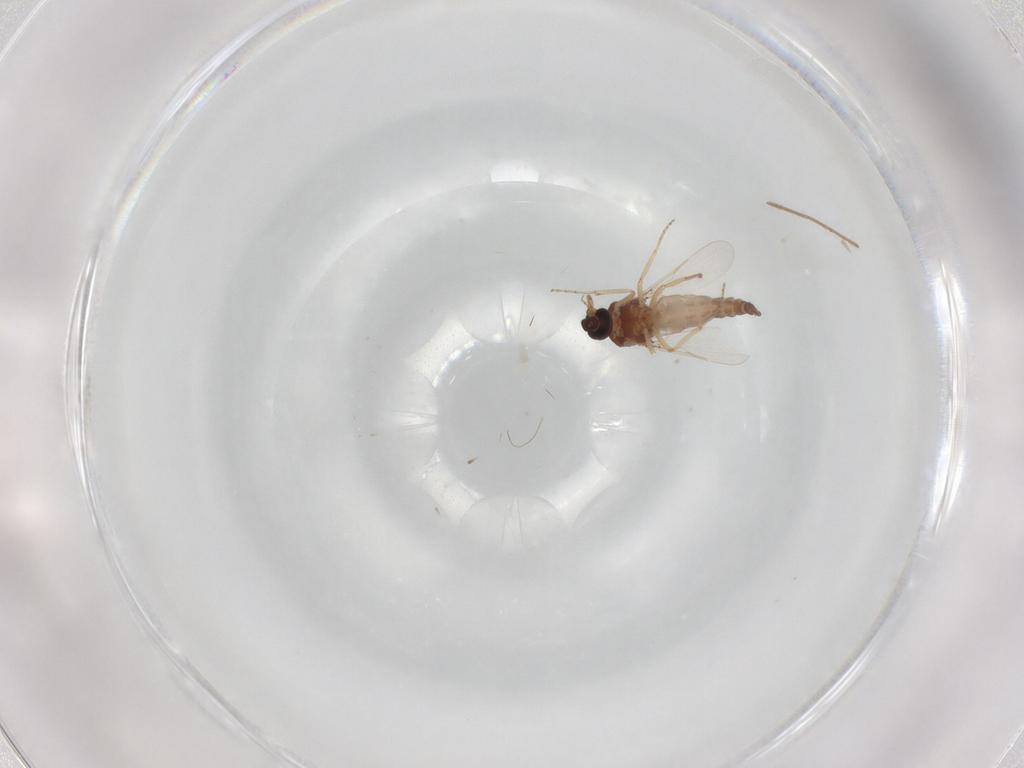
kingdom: Animalia
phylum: Arthropoda
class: Insecta
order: Diptera
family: Ceratopogonidae
